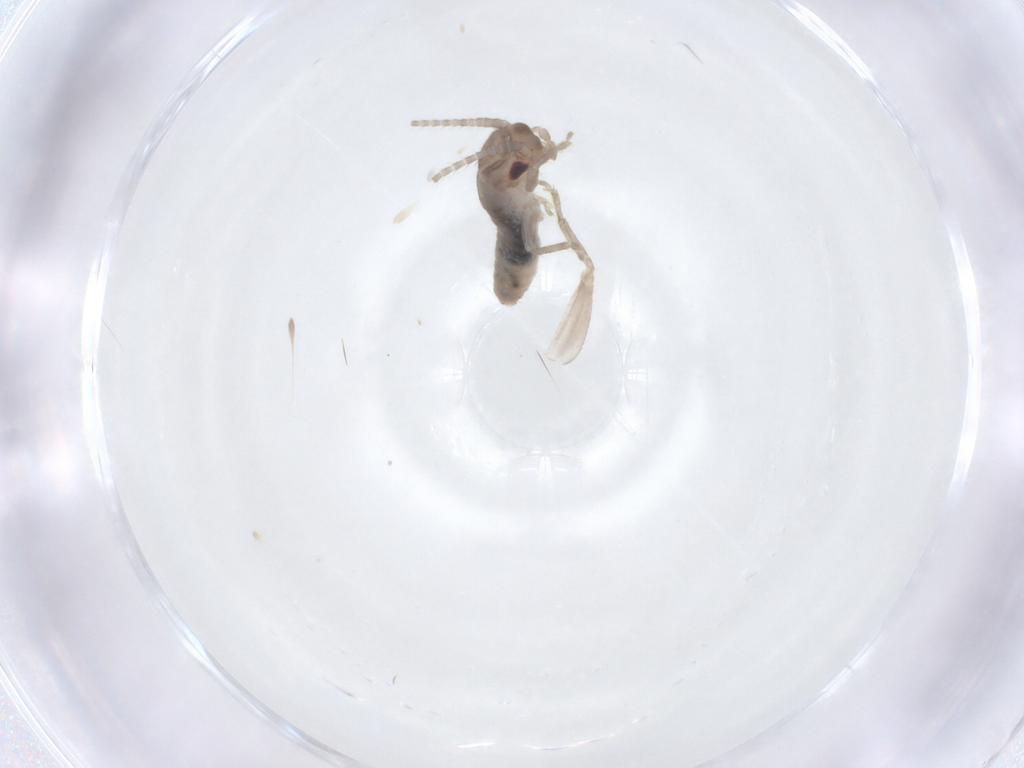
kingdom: Animalia
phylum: Arthropoda
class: Insecta
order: Orthoptera
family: Mogoplistidae
